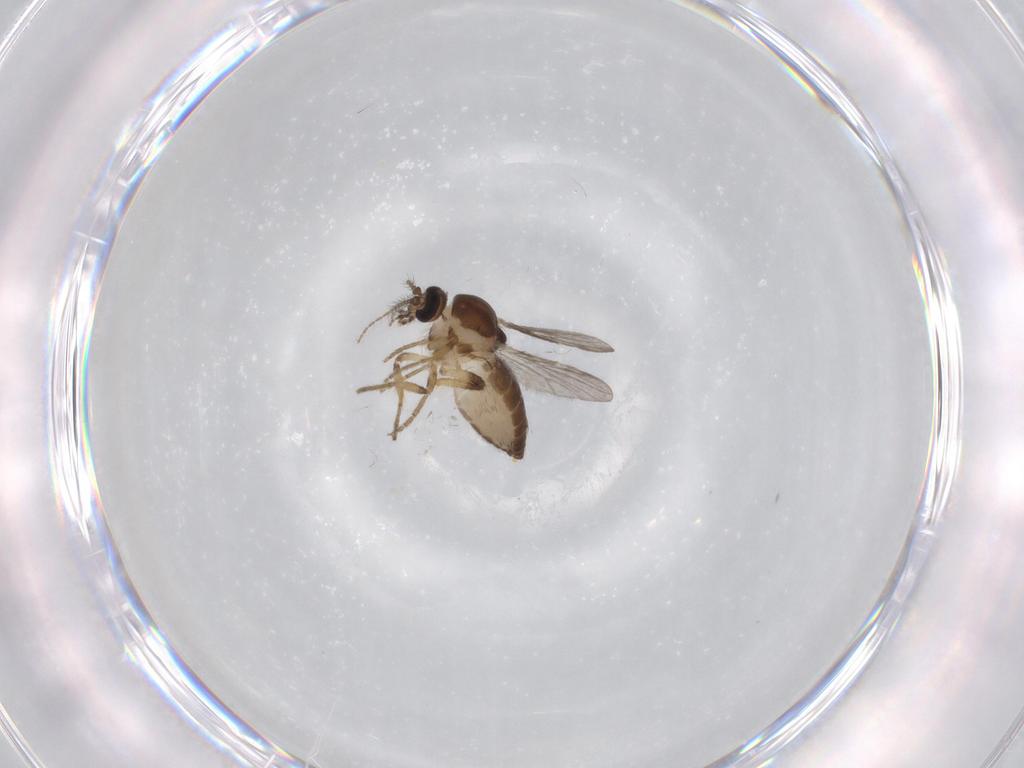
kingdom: Animalia
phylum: Arthropoda
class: Insecta
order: Diptera
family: Ceratopogonidae
